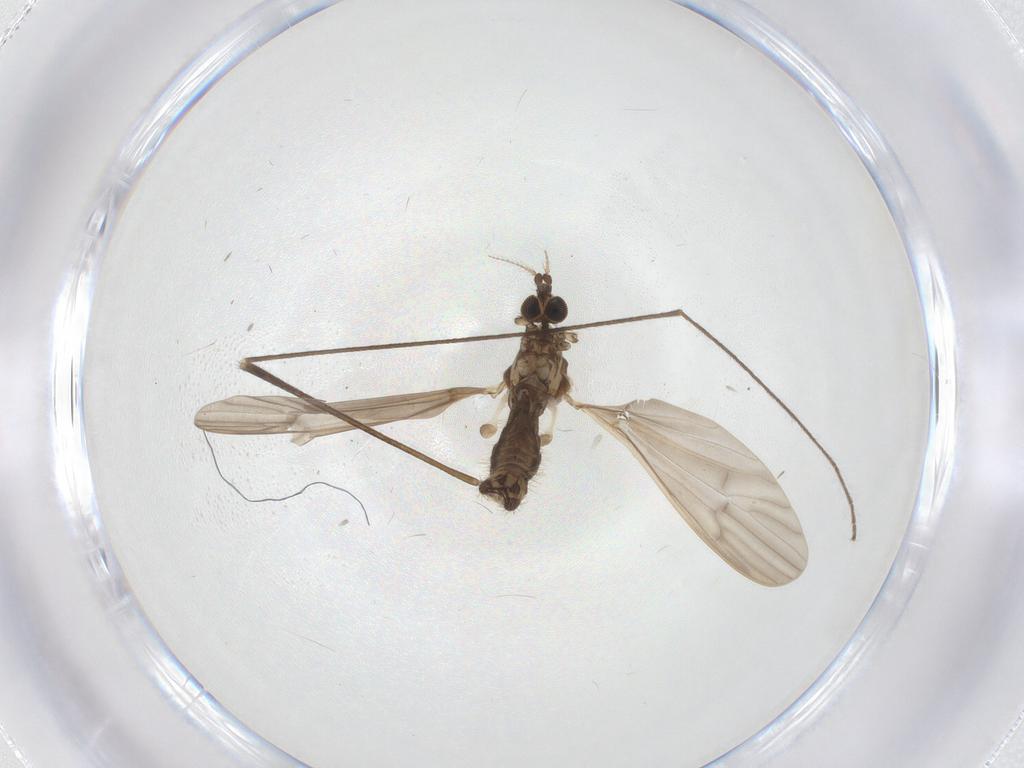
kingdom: Animalia
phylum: Arthropoda
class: Insecta
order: Diptera
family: Limoniidae
